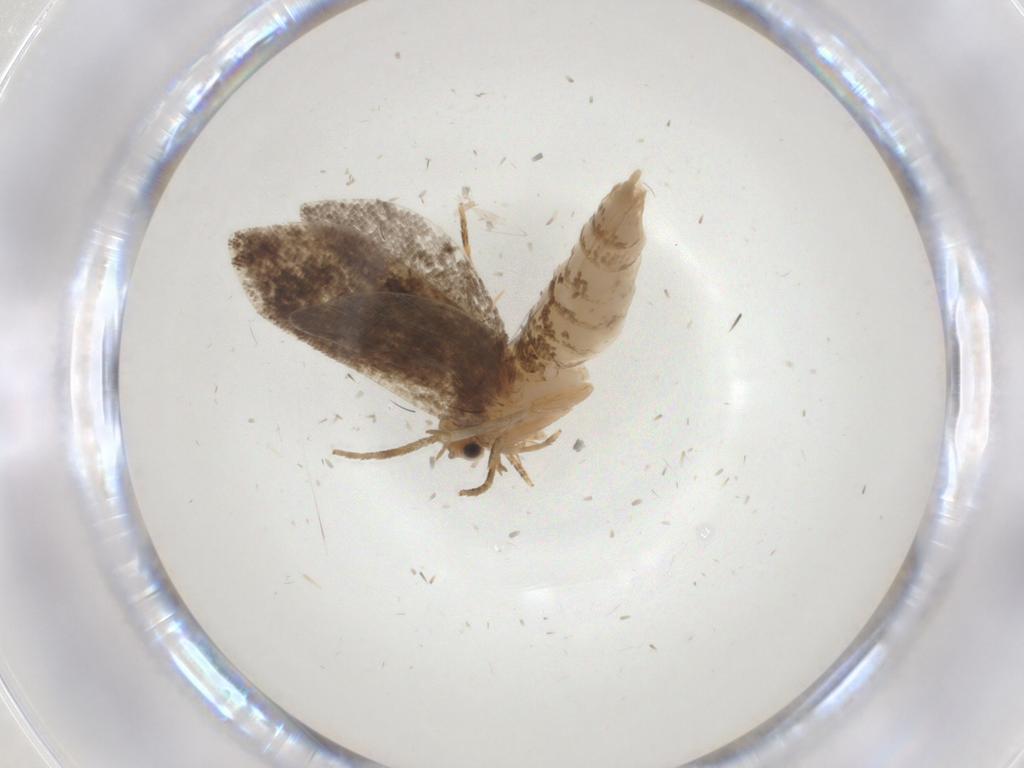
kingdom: Animalia
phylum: Arthropoda
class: Insecta
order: Lepidoptera
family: Tineidae
